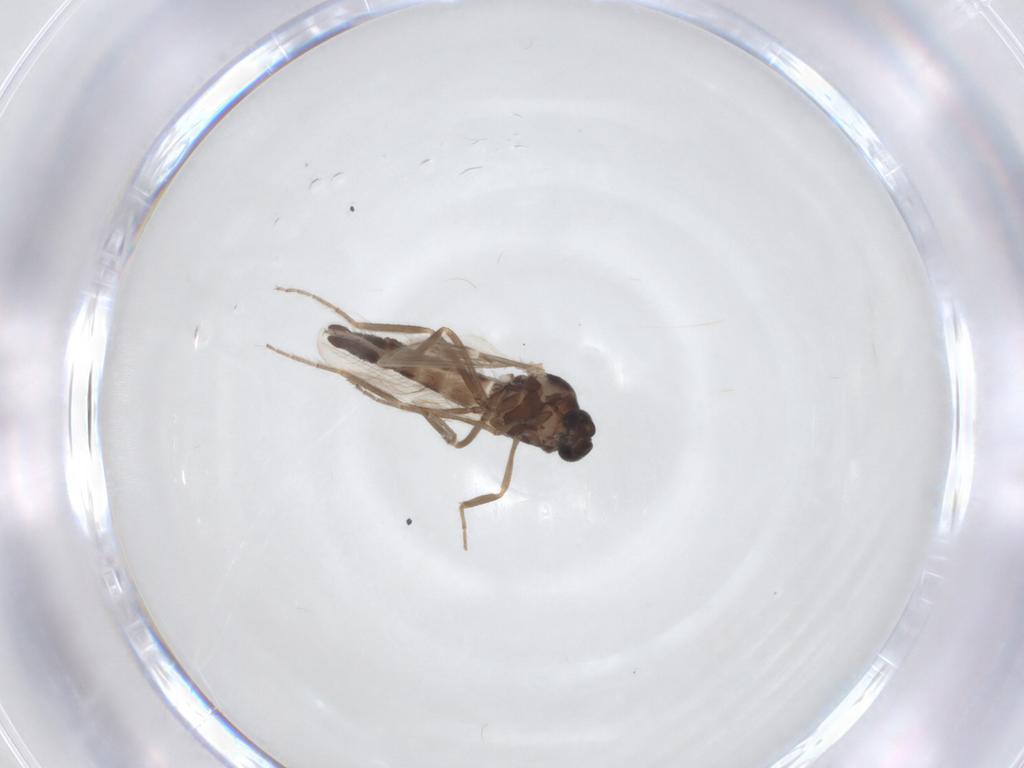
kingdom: Animalia
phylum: Arthropoda
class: Insecta
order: Diptera
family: Ceratopogonidae
